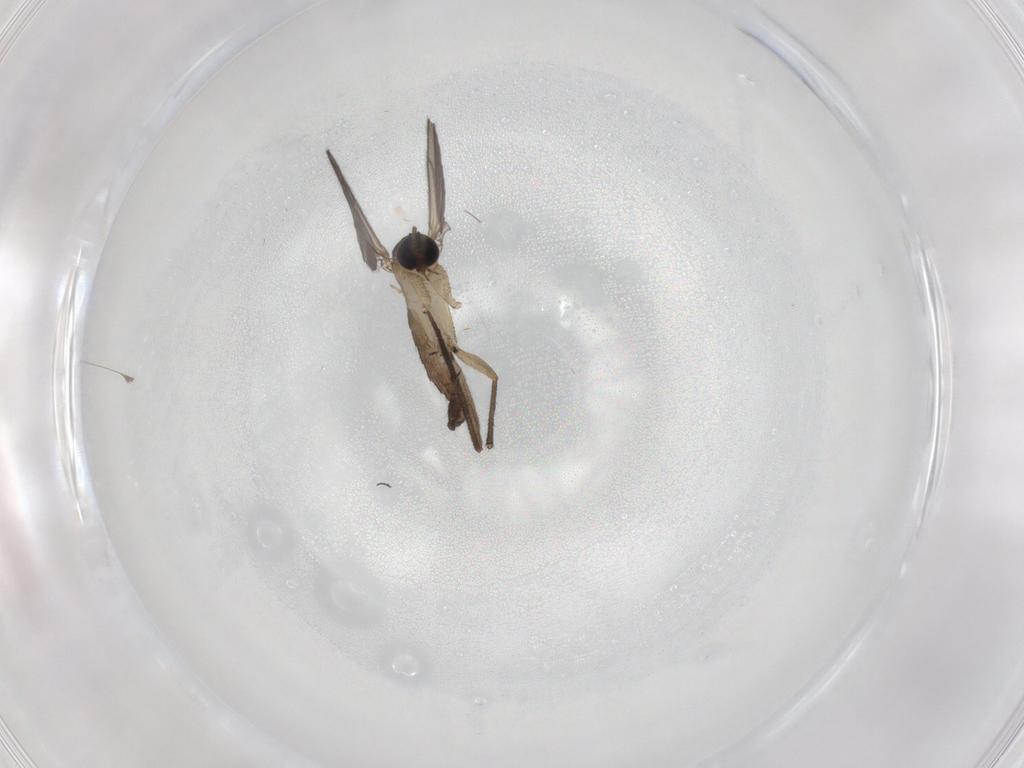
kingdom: Animalia
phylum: Arthropoda
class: Insecta
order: Diptera
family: Sciaridae
